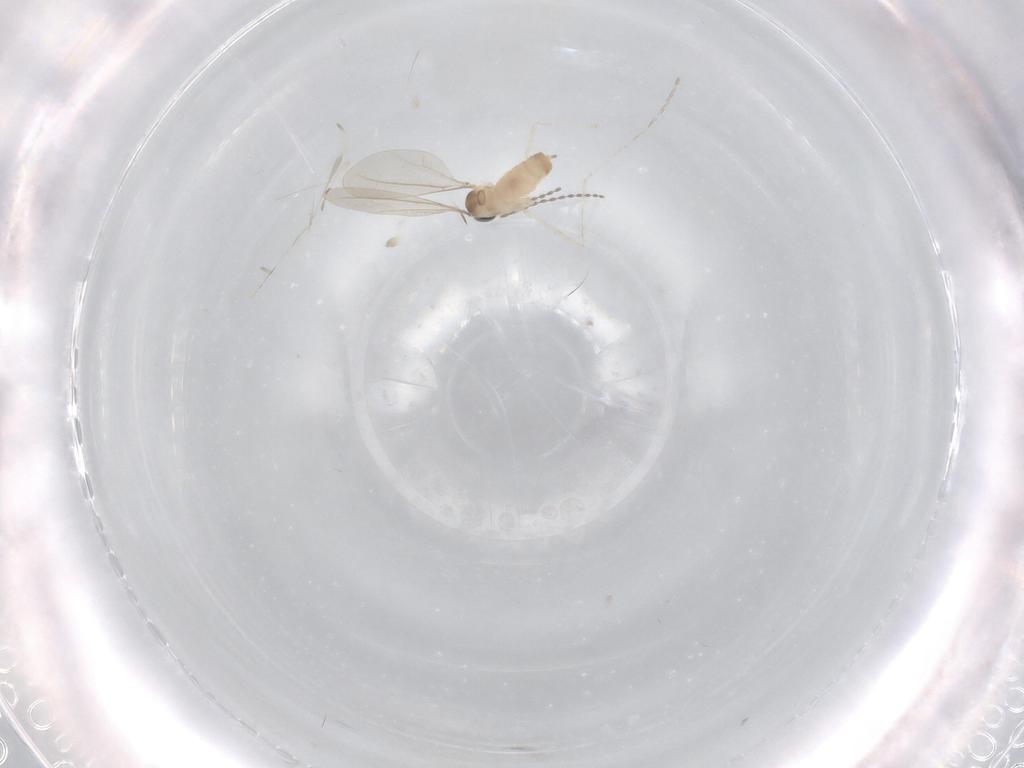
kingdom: Animalia
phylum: Arthropoda
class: Insecta
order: Diptera
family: Cecidomyiidae
